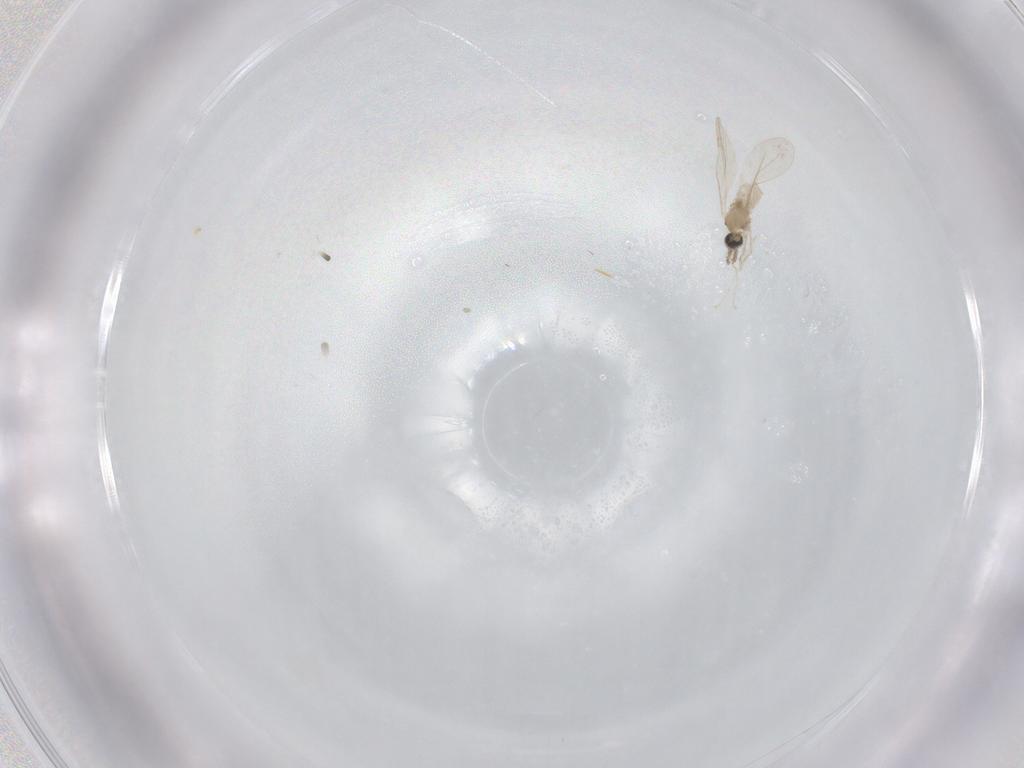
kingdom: Animalia
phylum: Arthropoda
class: Insecta
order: Diptera
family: Cecidomyiidae
